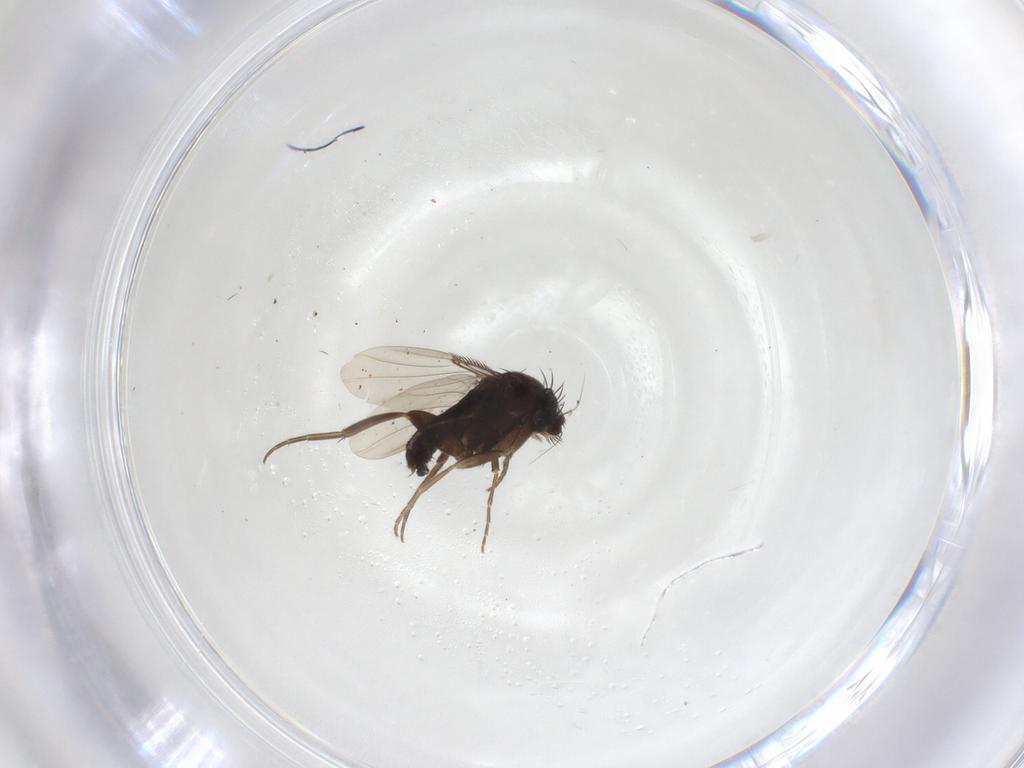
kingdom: Animalia
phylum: Arthropoda
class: Insecta
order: Diptera
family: Phoridae
